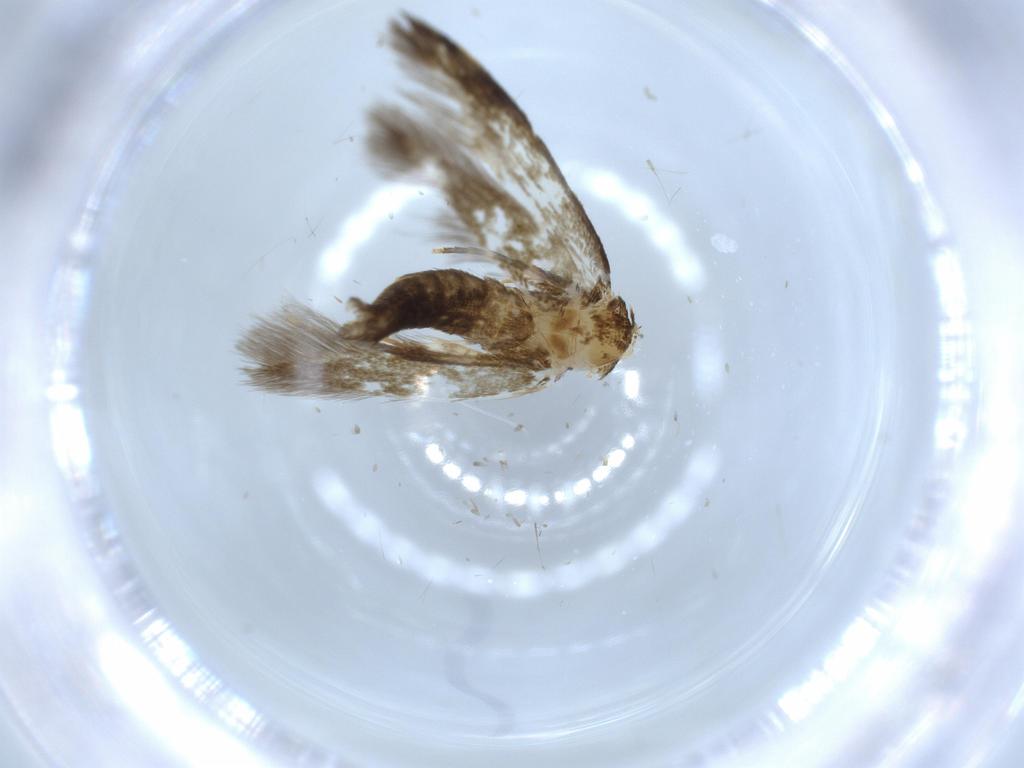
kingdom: Animalia
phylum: Arthropoda
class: Insecta
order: Lepidoptera
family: Tineidae
